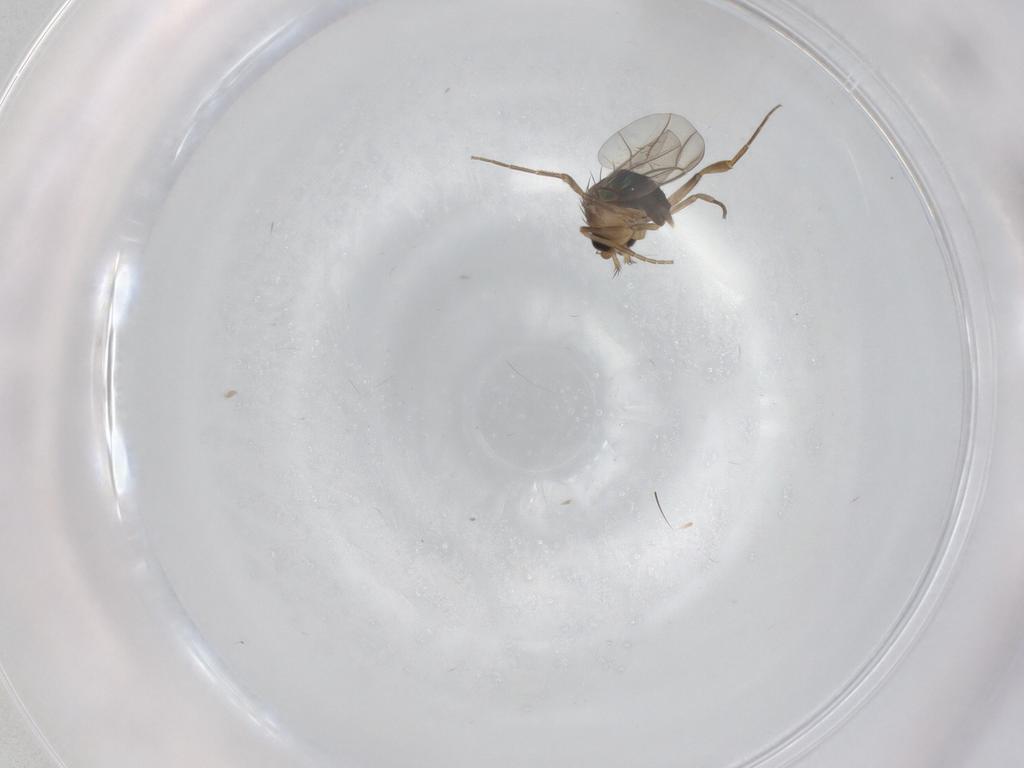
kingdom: Animalia
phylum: Arthropoda
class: Insecta
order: Diptera
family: Phoridae
